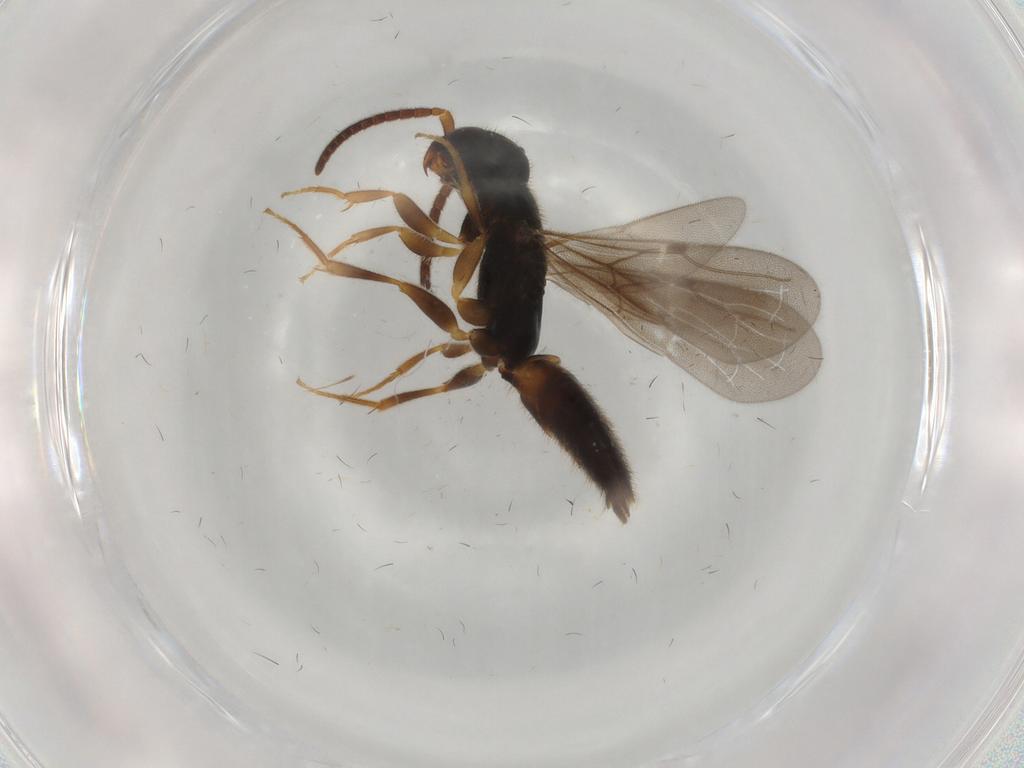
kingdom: Animalia
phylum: Arthropoda
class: Insecta
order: Hymenoptera
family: Bethylidae
